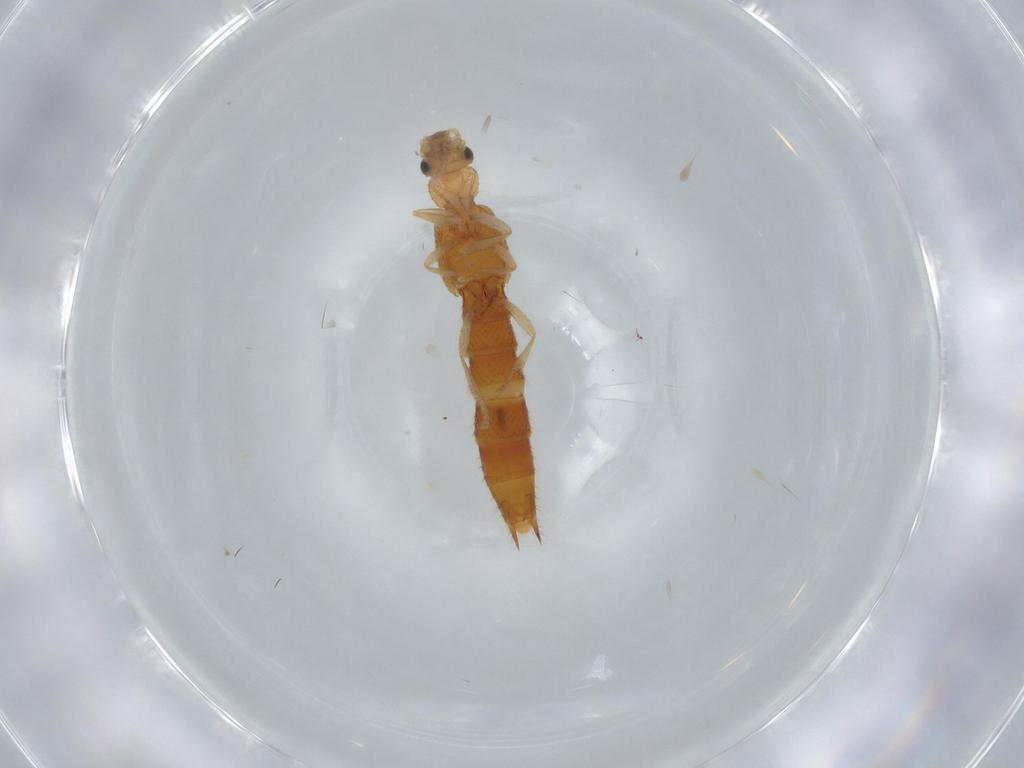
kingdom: Animalia
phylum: Arthropoda
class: Insecta
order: Coleoptera
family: Staphylinidae
